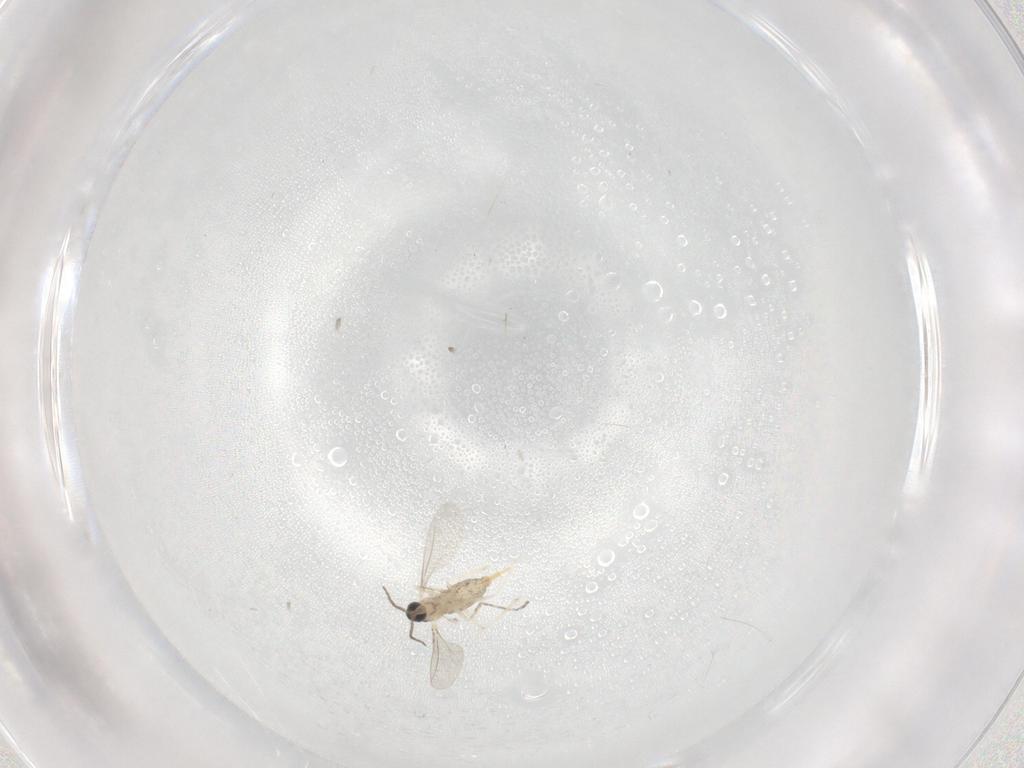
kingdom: Animalia
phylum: Arthropoda
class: Insecta
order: Diptera
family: Cecidomyiidae
